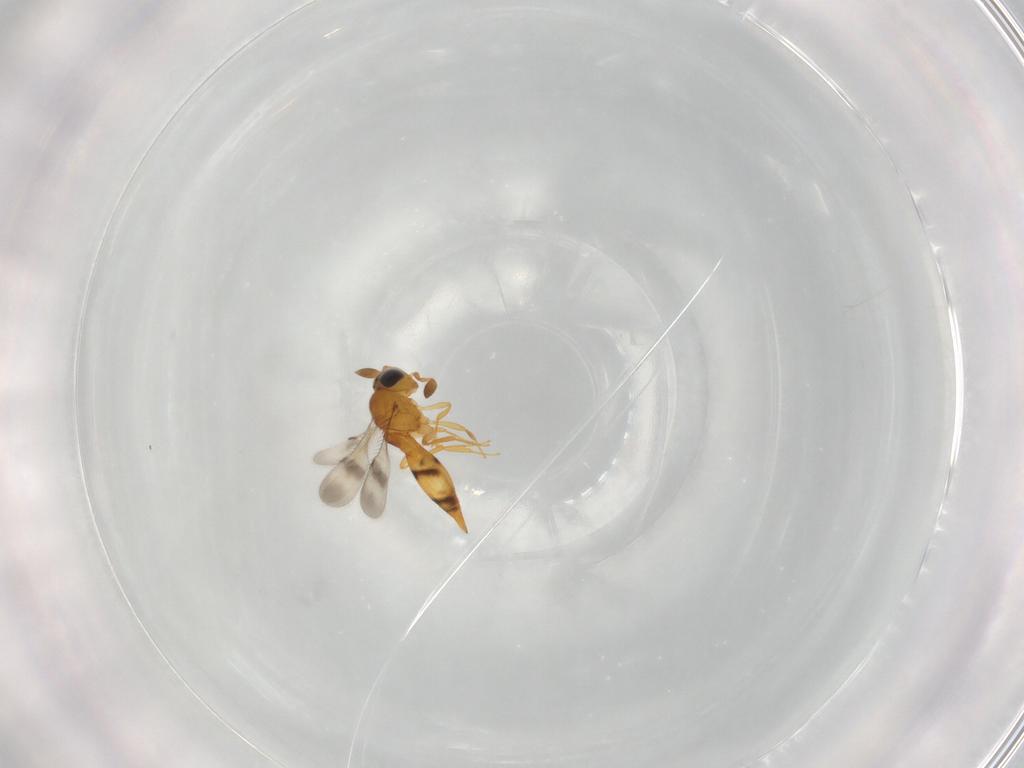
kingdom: Animalia
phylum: Arthropoda
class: Insecta
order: Hymenoptera
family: Scelionidae
